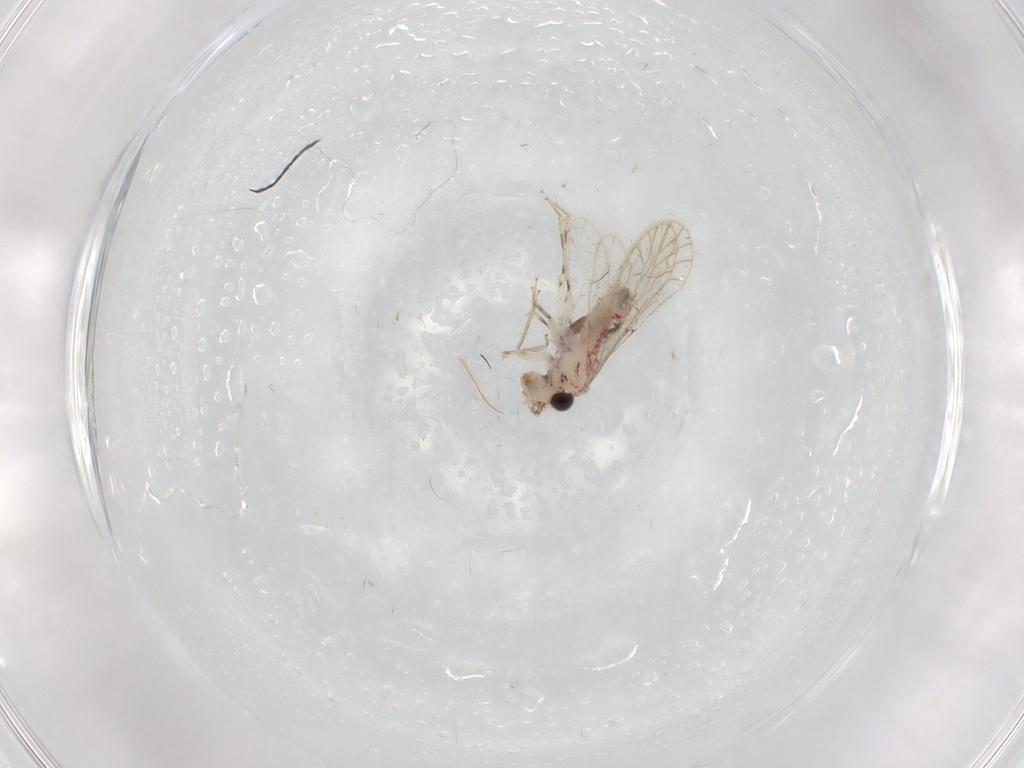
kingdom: Animalia
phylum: Arthropoda
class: Insecta
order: Psocodea
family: Caeciliusidae
